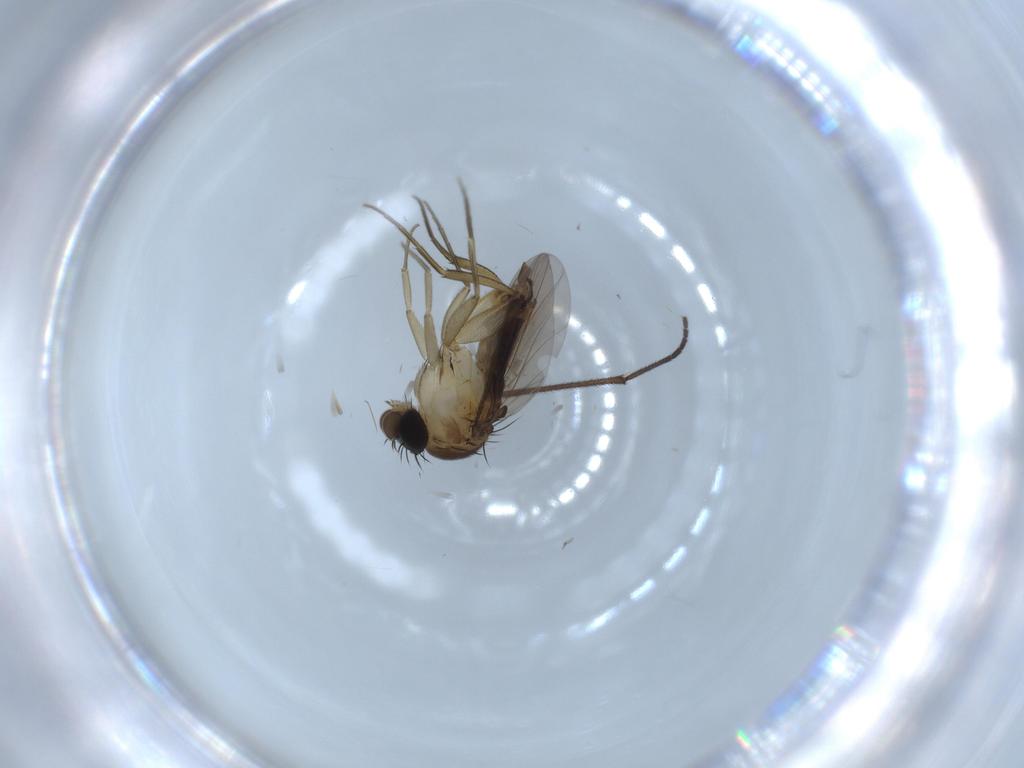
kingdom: Animalia
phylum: Arthropoda
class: Insecta
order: Diptera
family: Phoridae
